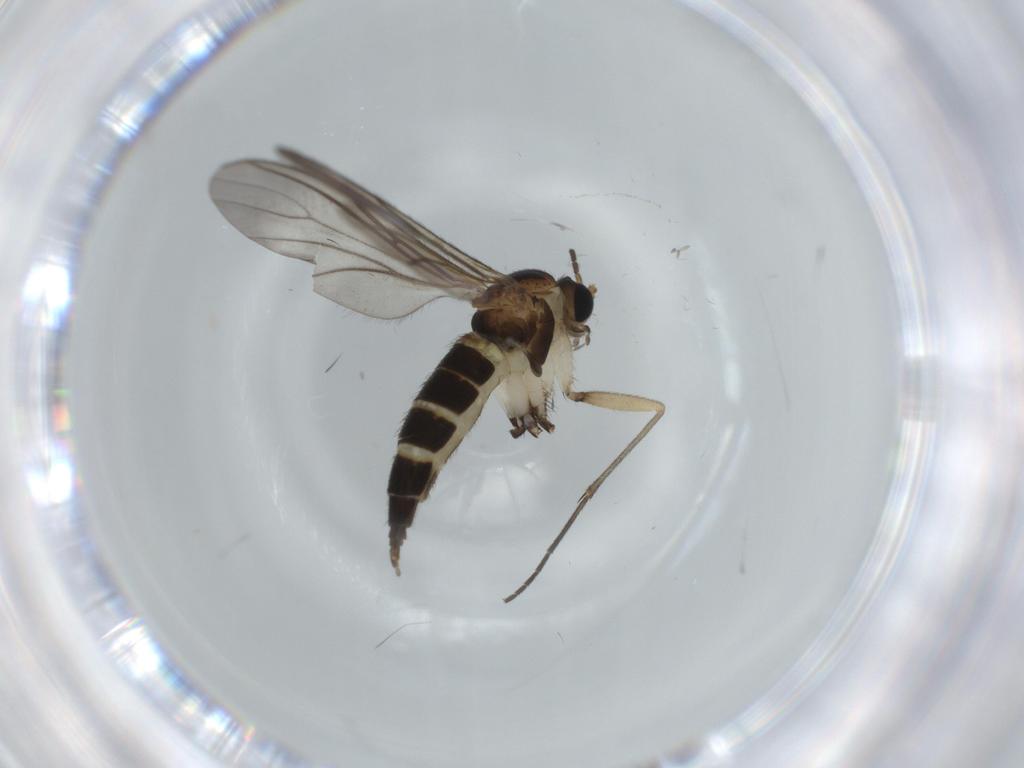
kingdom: Animalia
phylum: Arthropoda
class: Insecta
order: Diptera
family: Sciaridae
